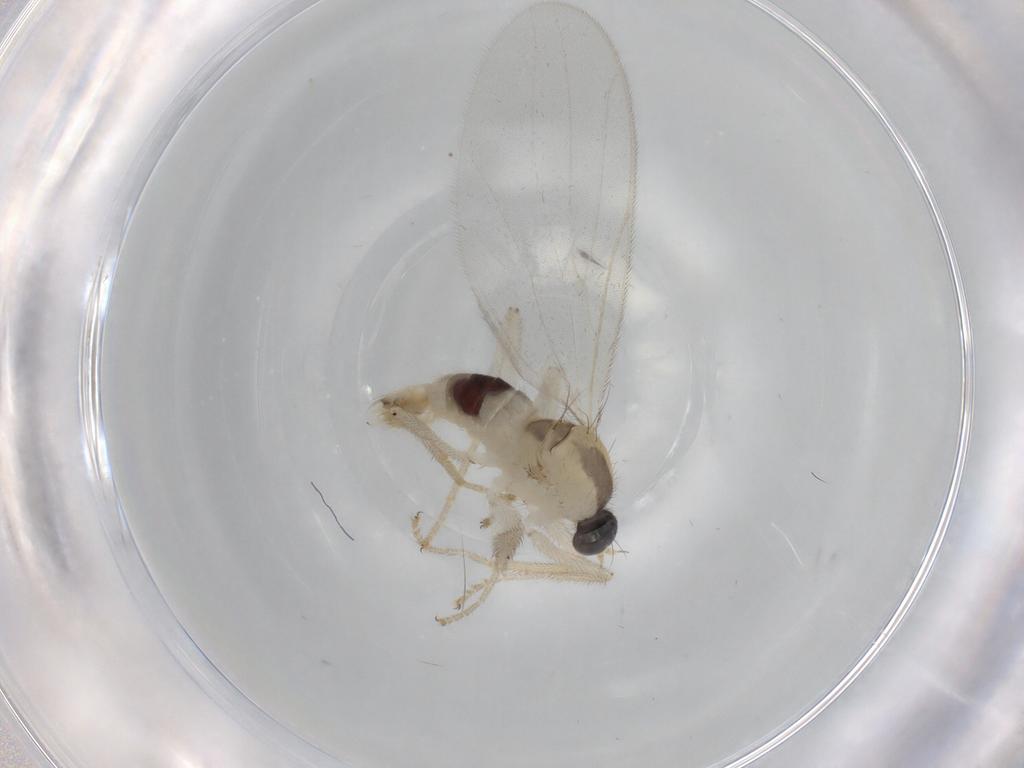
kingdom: Animalia
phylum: Arthropoda
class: Insecta
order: Diptera
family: Hybotidae
